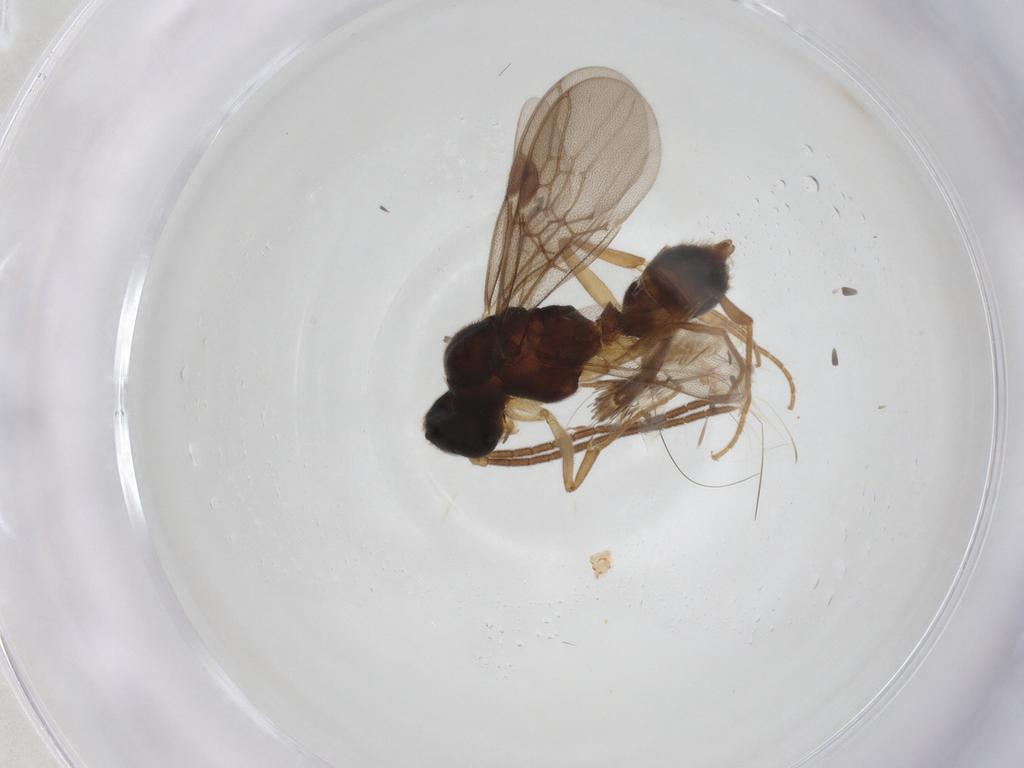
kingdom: Animalia
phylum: Arthropoda
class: Insecta
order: Hymenoptera
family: Formicidae
